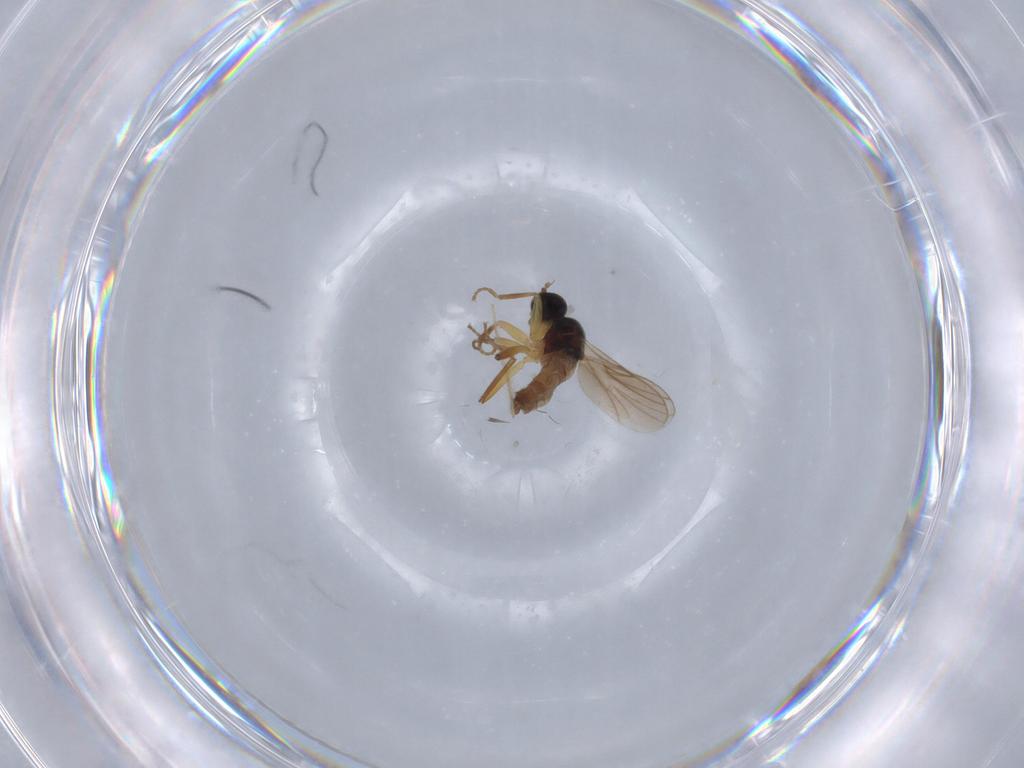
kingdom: Animalia
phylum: Arthropoda
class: Insecta
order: Diptera
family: Hybotidae
